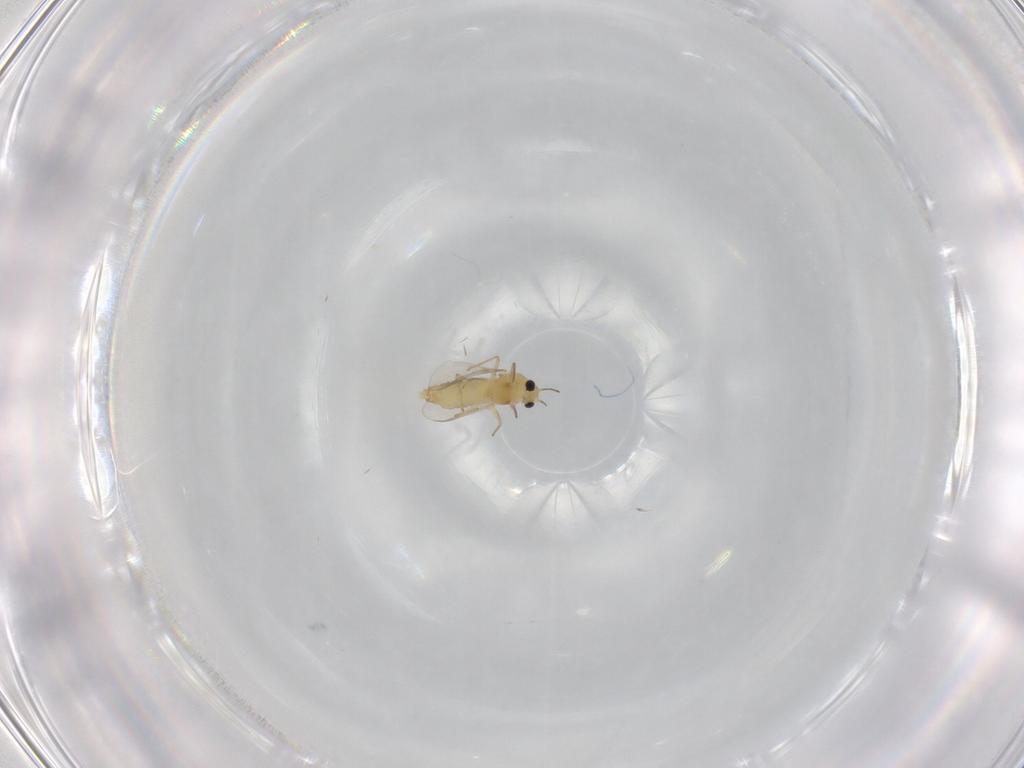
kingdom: Animalia
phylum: Arthropoda
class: Insecta
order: Diptera
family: Chironomidae
